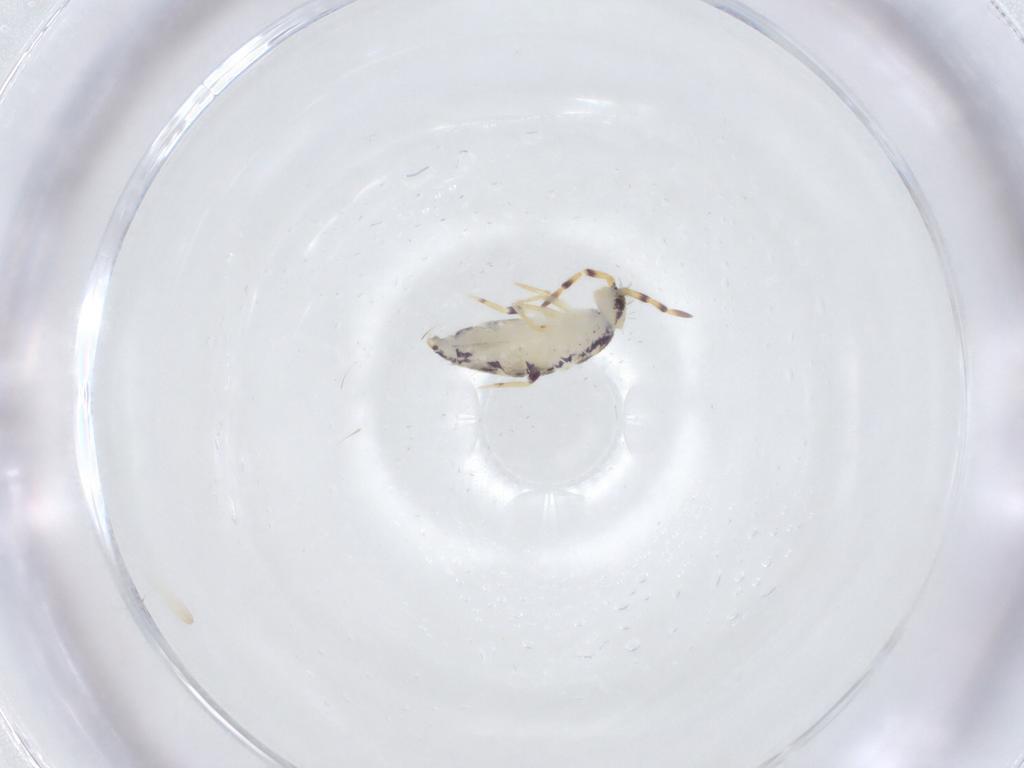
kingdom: Animalia
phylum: Arthropoda
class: Collembola
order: Entomobryomorpha
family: Isotomidae
